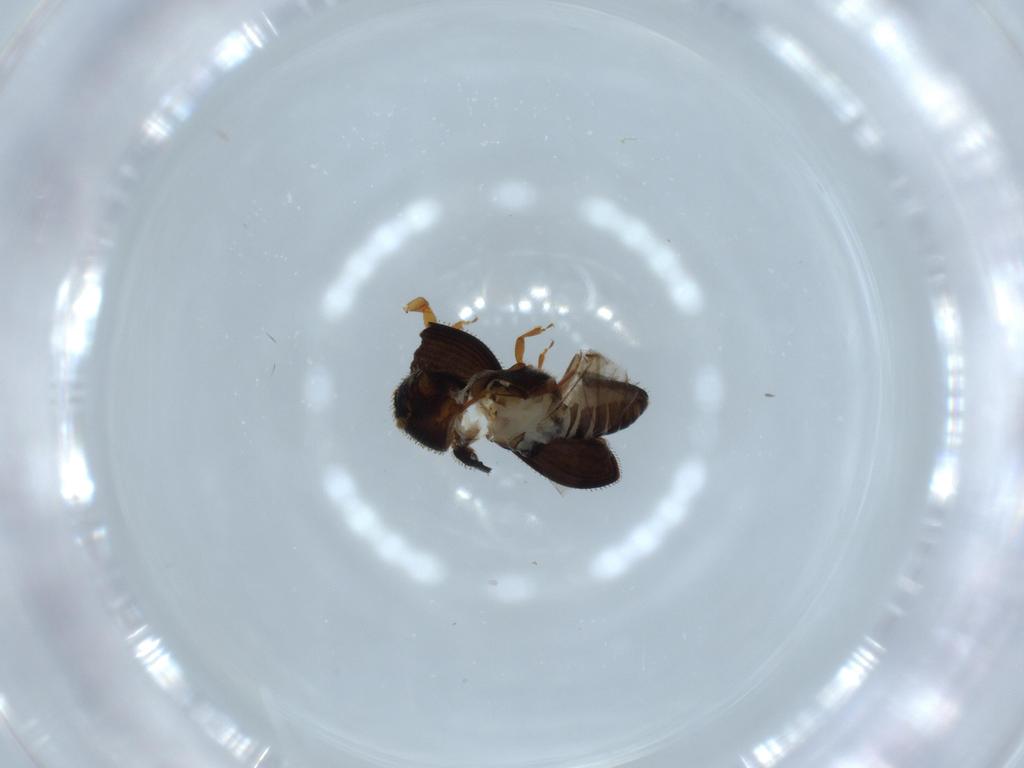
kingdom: Animalia
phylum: Arthropoda
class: Insecta
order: Coleoptera
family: Curculionidae
